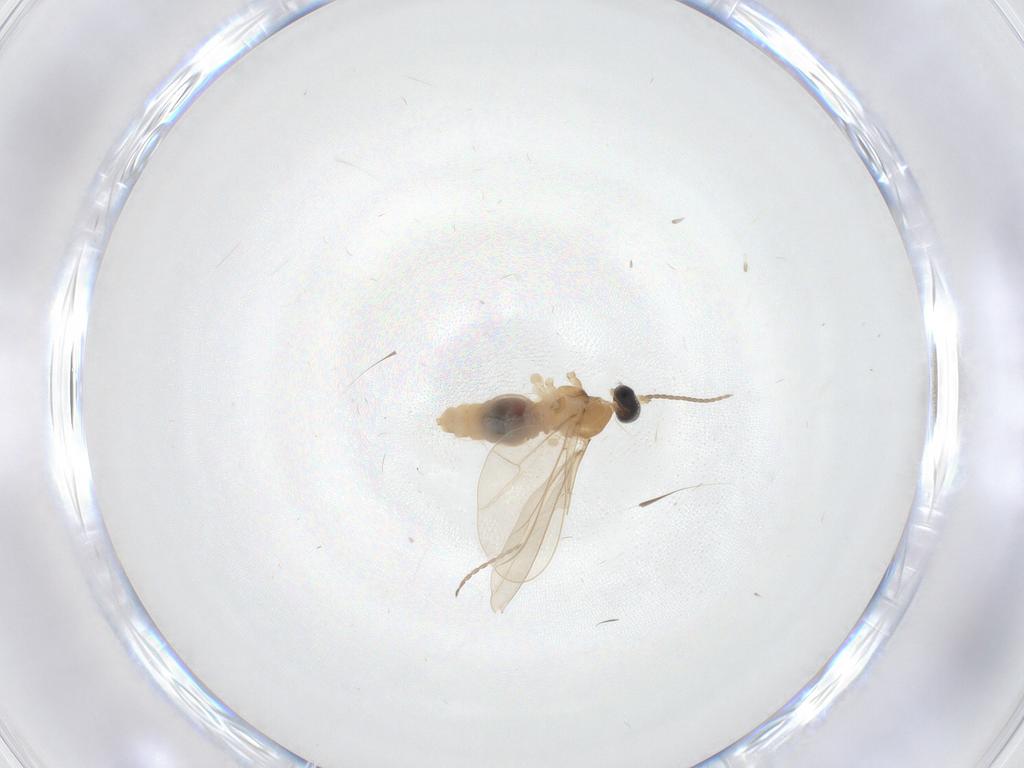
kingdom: Animalia
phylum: Arthropoda
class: Insecta
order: Diptera
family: Cecidomyiidae
